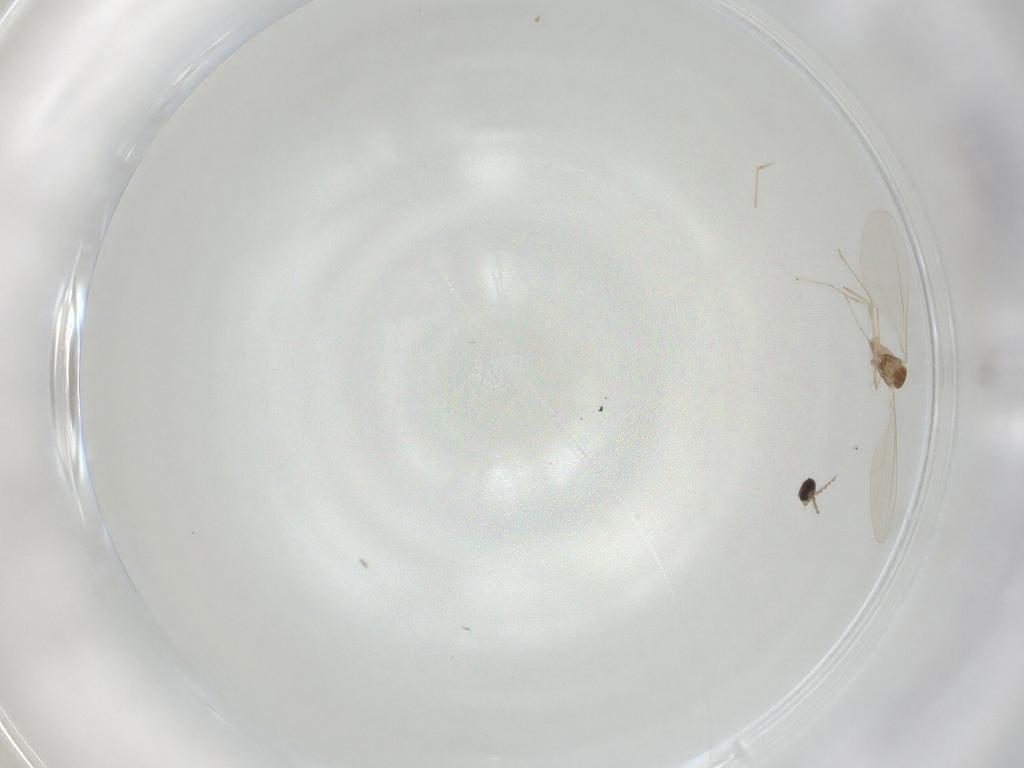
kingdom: Animalia
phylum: Arthropoda
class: Insecta
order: Diptera
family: Cecidomyiidae
